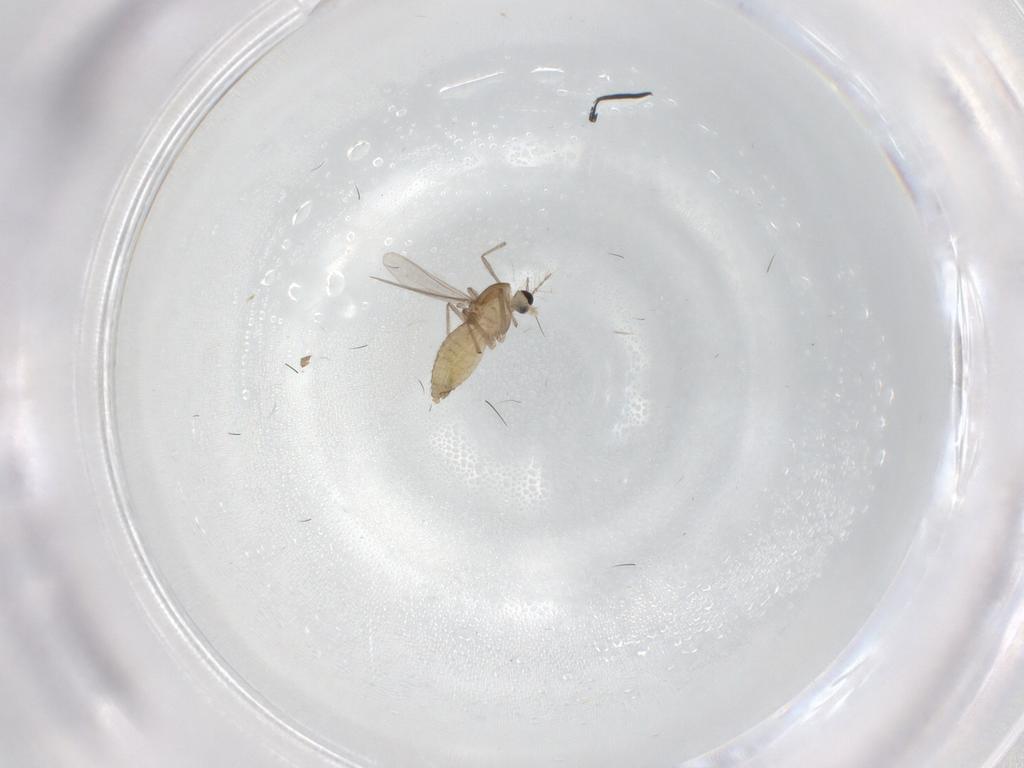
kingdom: Animalia
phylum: Arthropoda
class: Insecta
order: Diptera
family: Chironomidae
